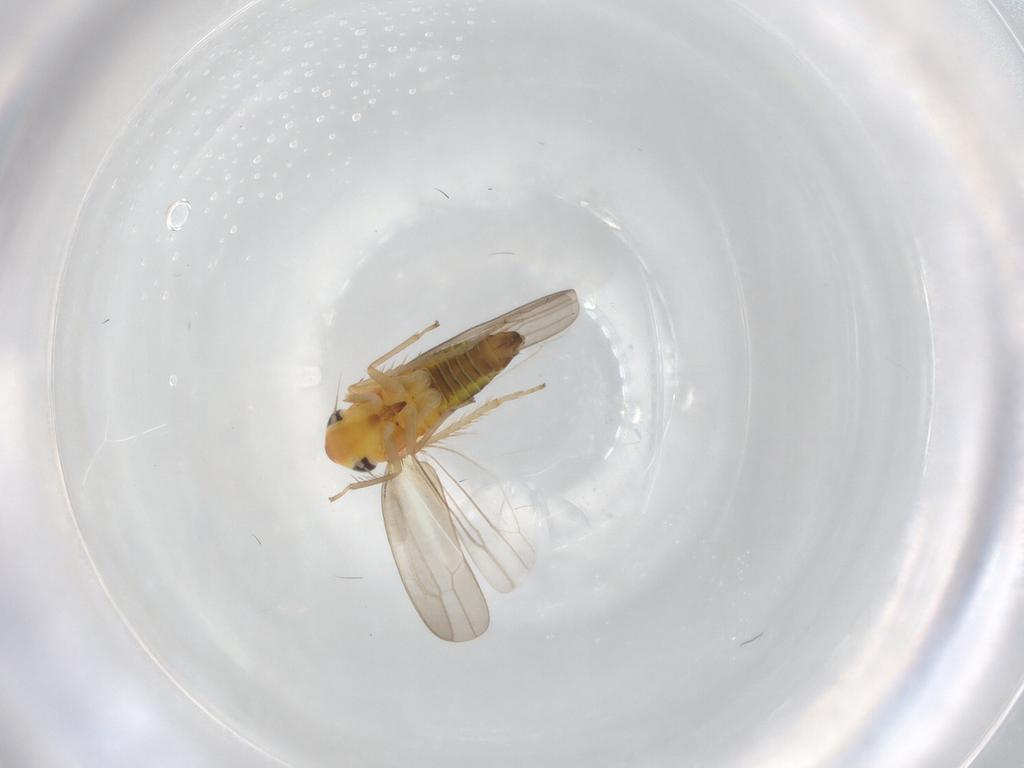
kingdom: Animalia
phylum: Arthropoda
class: Insecta
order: Hemiptera
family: Cicadellidae
